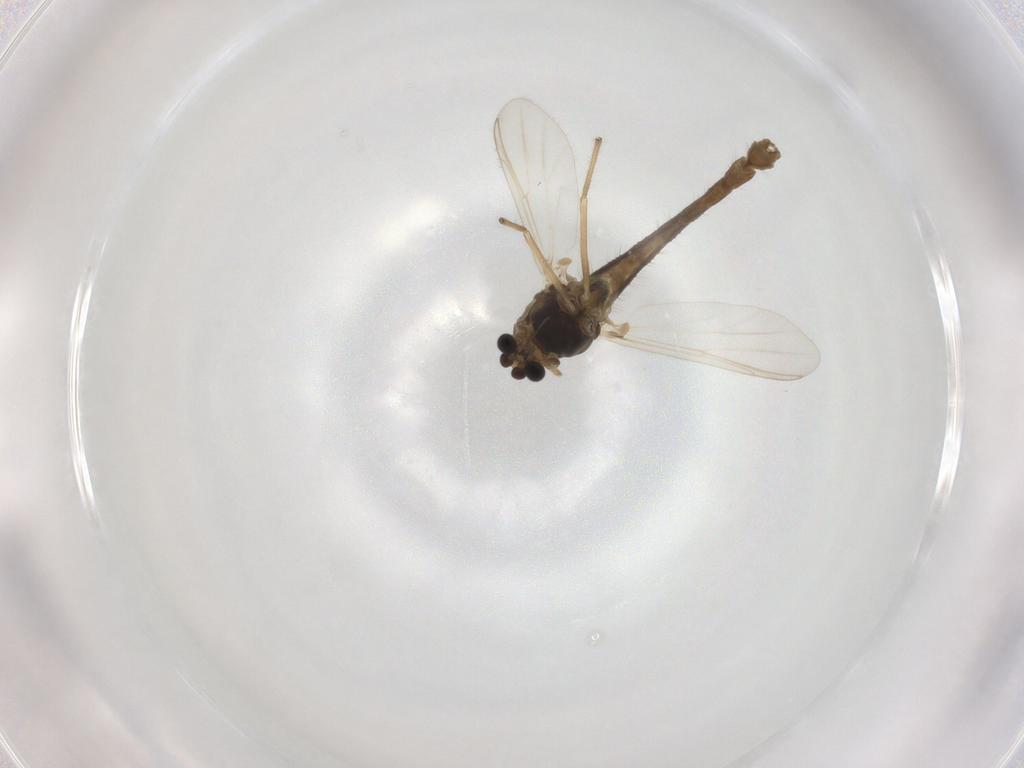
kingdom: Animalia
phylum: Arthropoda
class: Insecta
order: Diptera
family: Chironomidae
